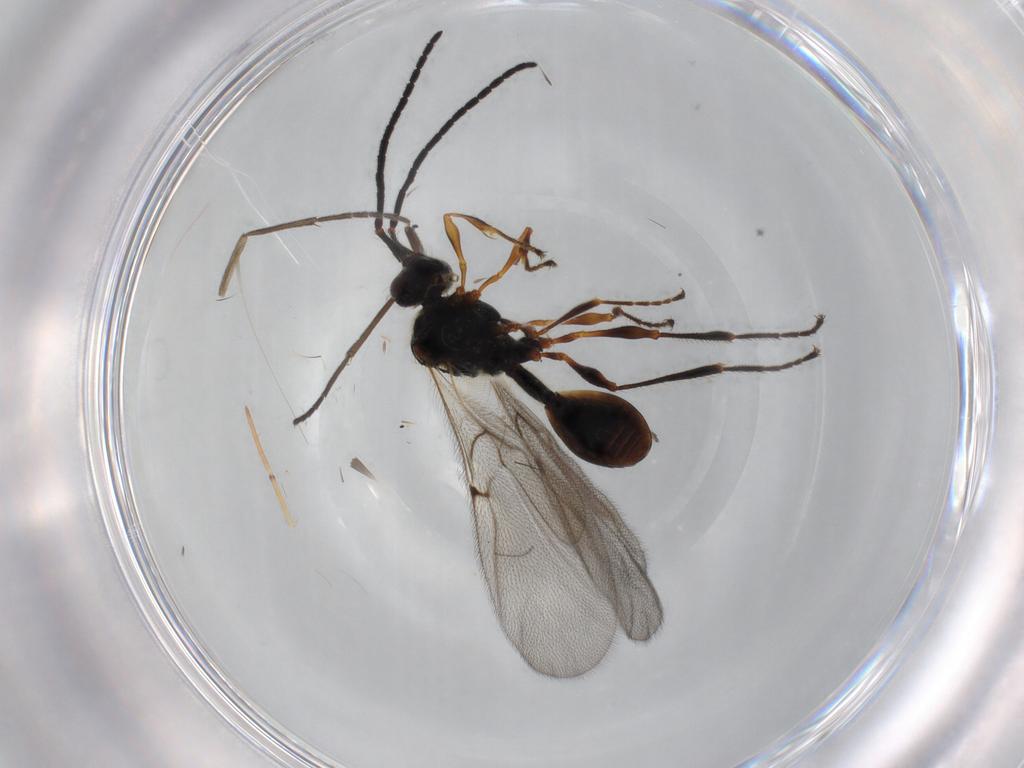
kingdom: Animalia
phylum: Arthropoda
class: Insecta
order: Hymenoptera
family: Diapriidae
